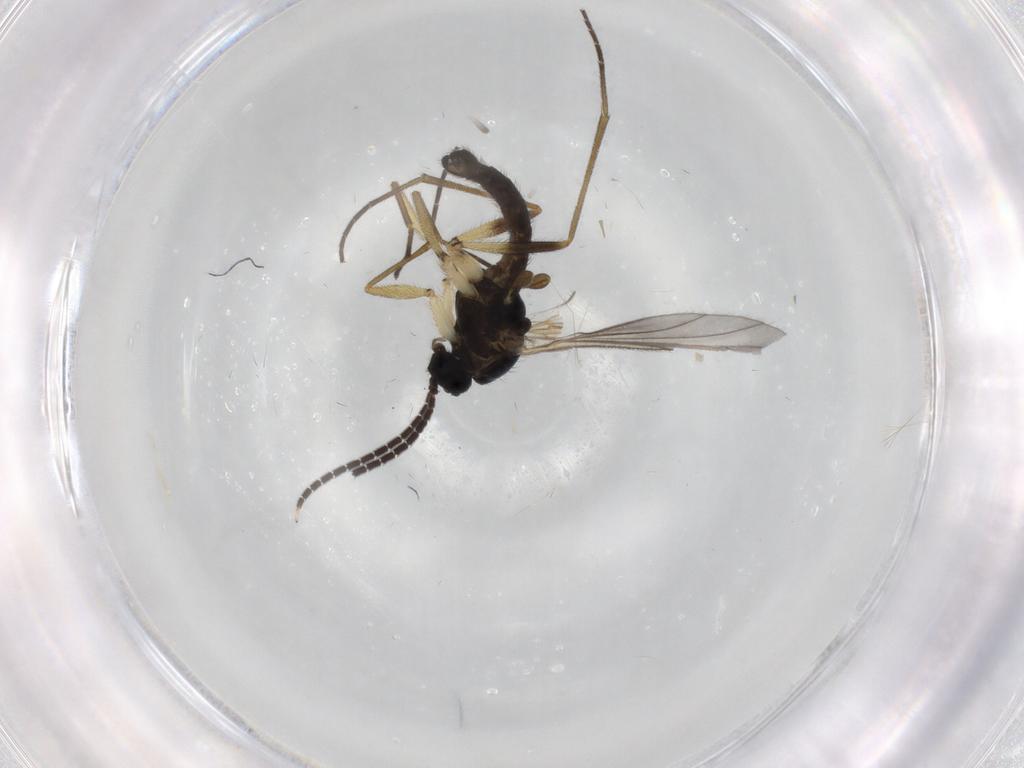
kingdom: Animalia
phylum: Arthropoda
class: Insecta
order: Diptera
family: Sciaridae
